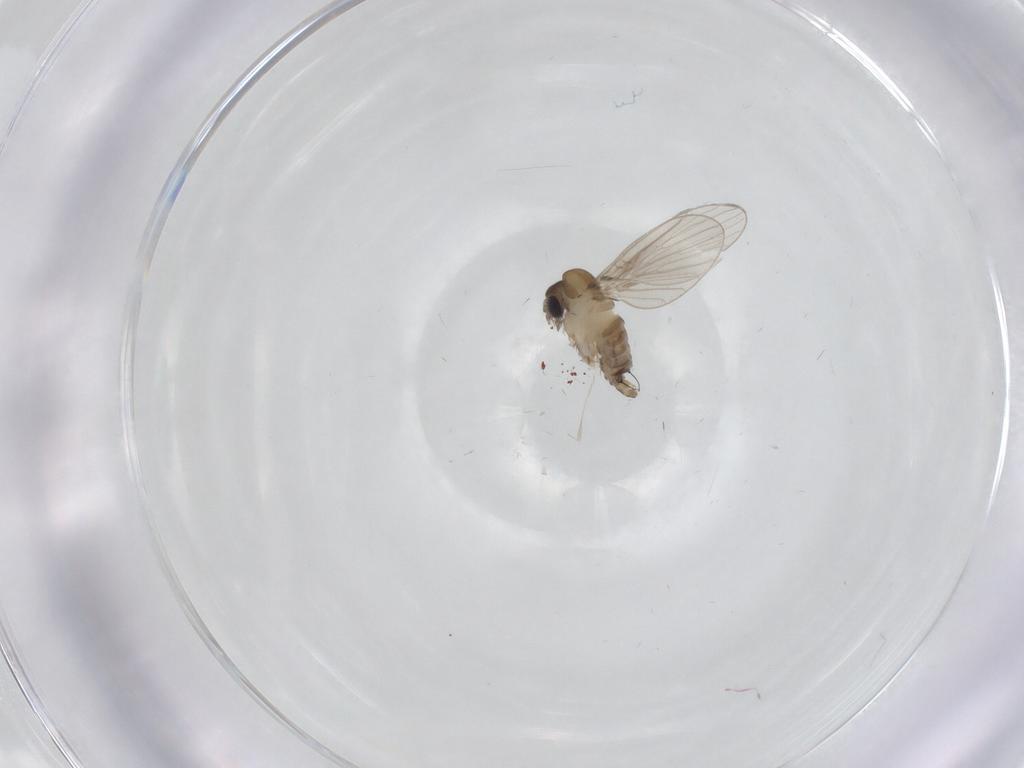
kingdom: Animalia
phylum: Arthropoda
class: Insecta
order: Diptera
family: Psychodidae
